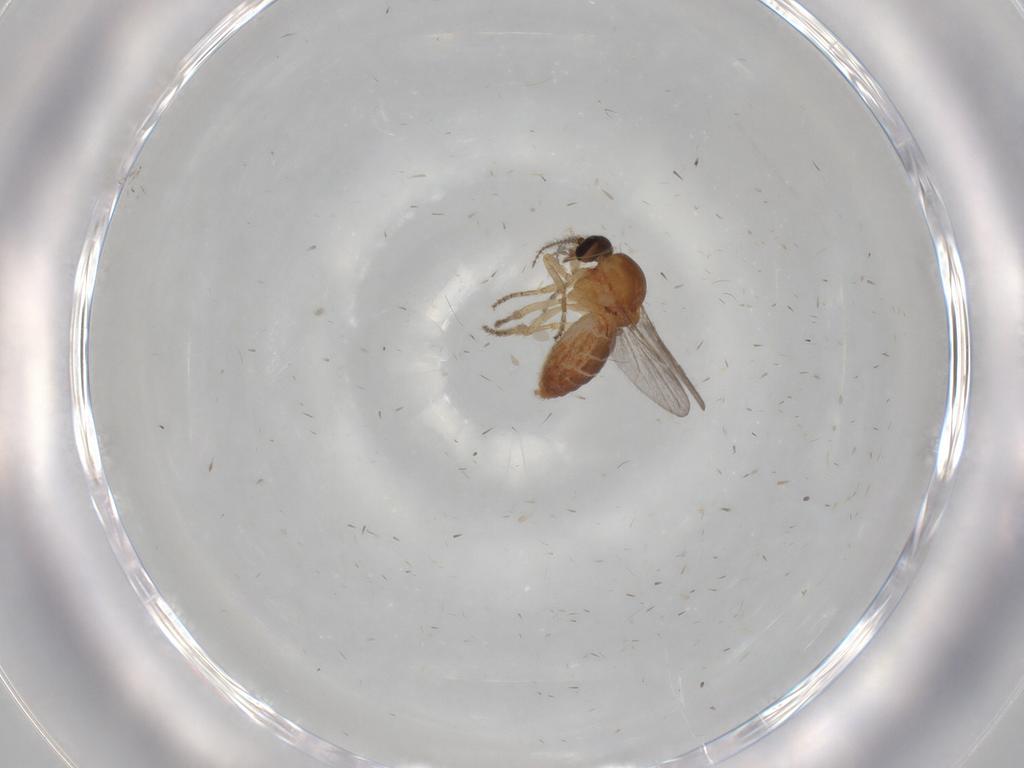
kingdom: Animalia
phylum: Arthropoda
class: Insecta
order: Diptera
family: Ceratopogonidae
